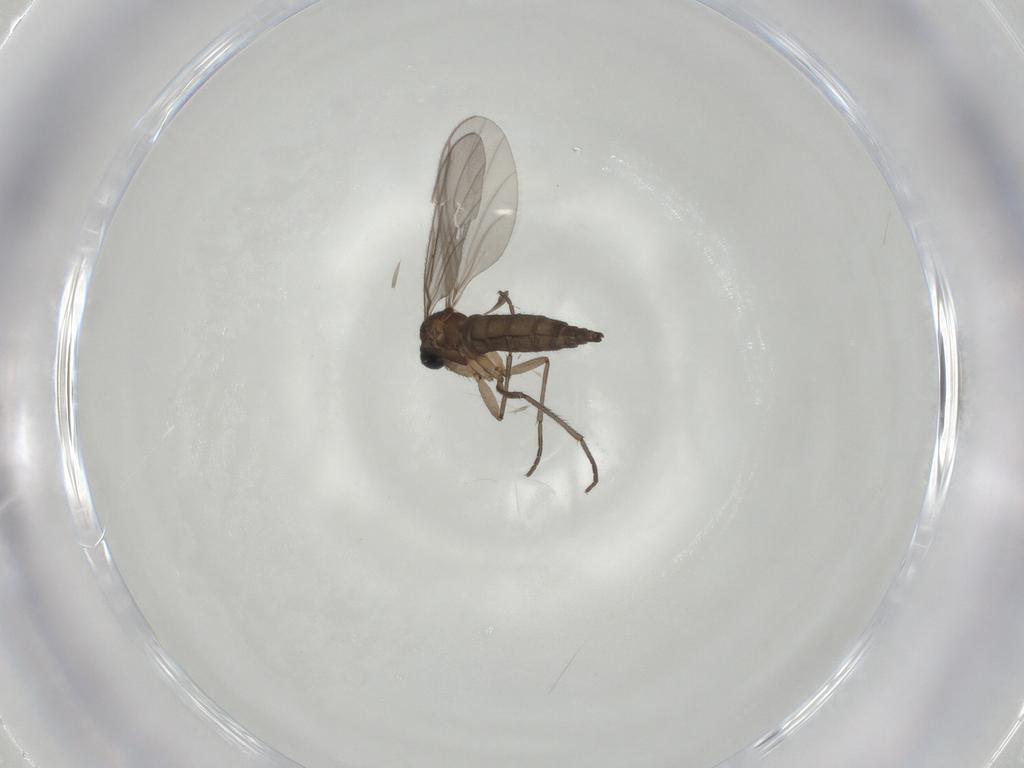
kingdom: Animalia
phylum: Arthropoda
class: Insecta
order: Diptera
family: Sciaridae
